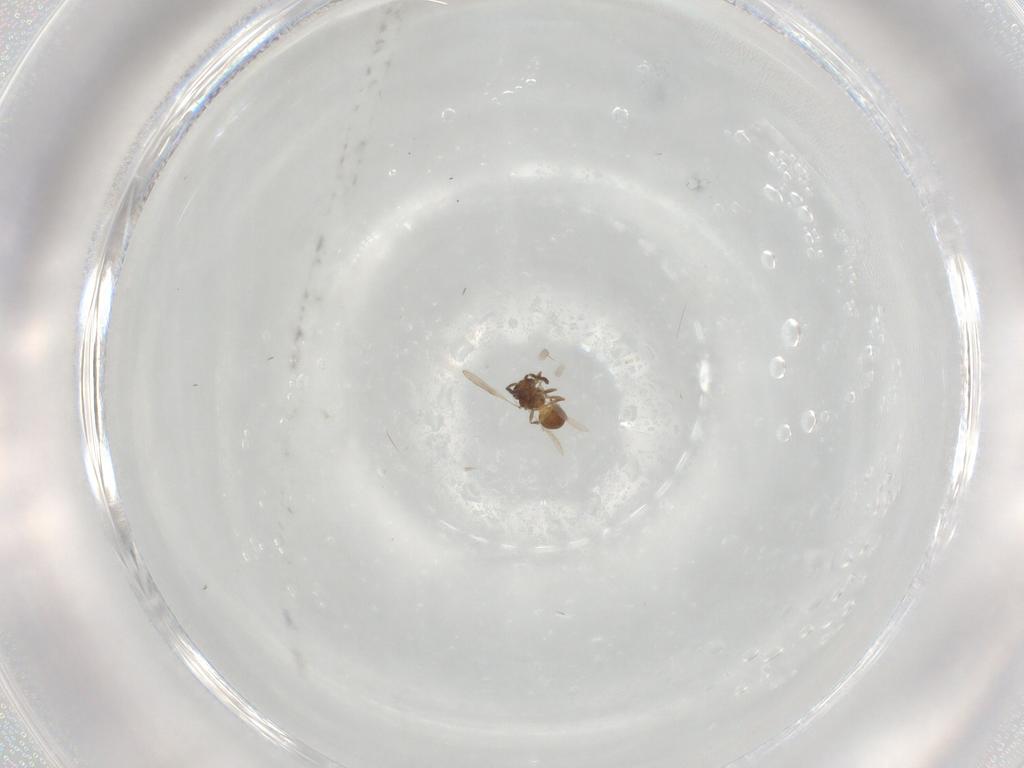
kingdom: Animalia
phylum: Arthropoda
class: Insecta
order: Hymenoptera
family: Scelionidae
